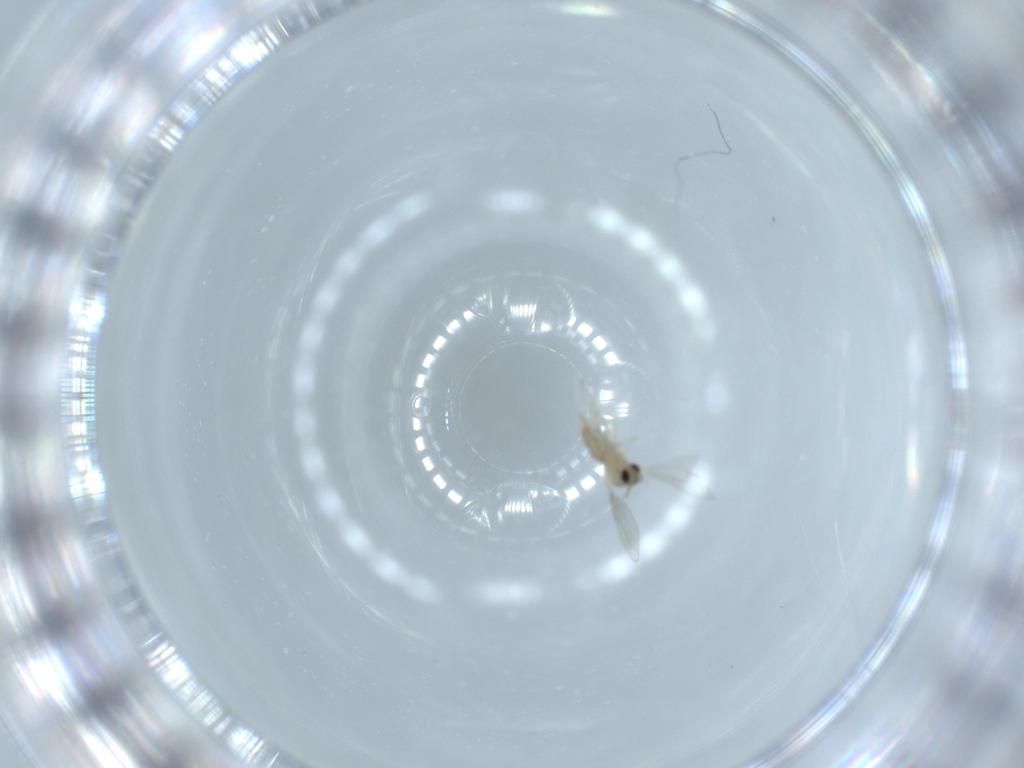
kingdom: Animalia
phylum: Arthropoda
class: Insecta
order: Diptera
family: Cecidomyiidae
